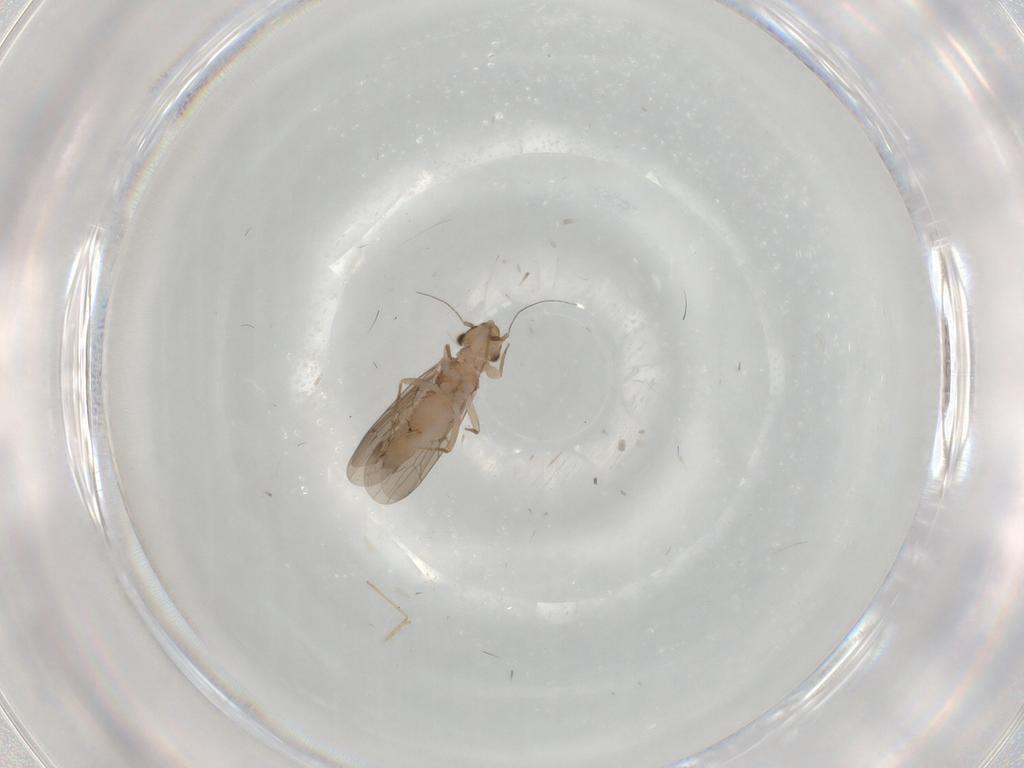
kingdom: Animalia
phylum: Arthropoda
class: Insecta
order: Psocodea
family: Lepidopsocidae
